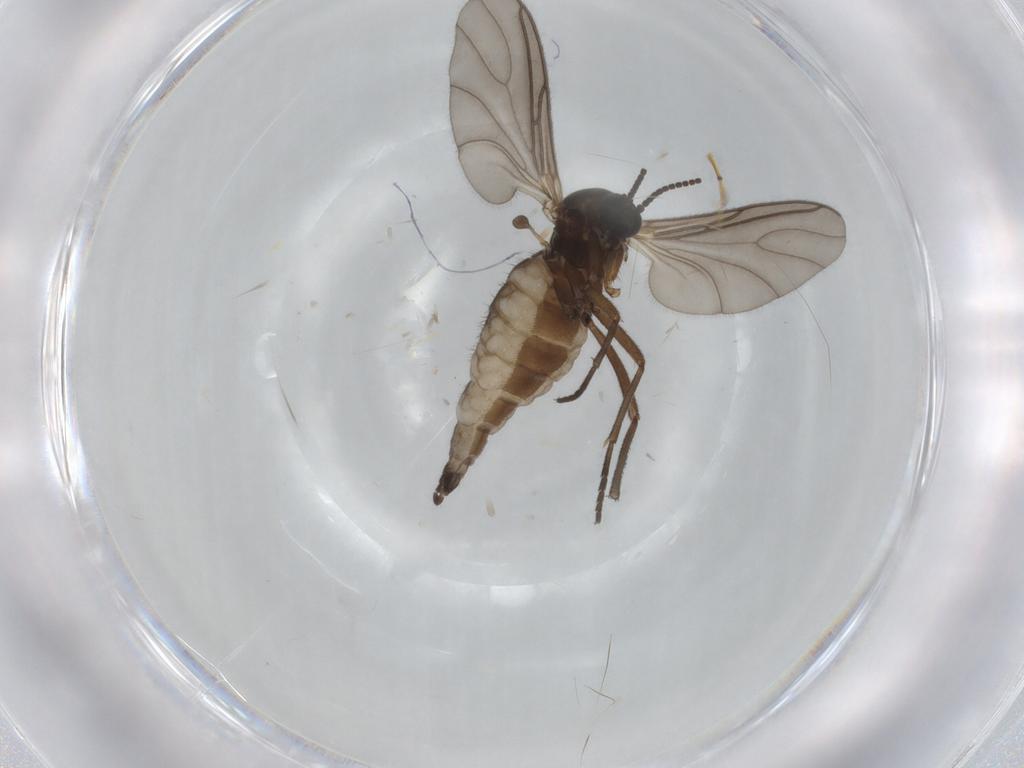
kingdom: Animalia
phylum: Arthropoda
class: Insecta
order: Diptera
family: Sciaridae
